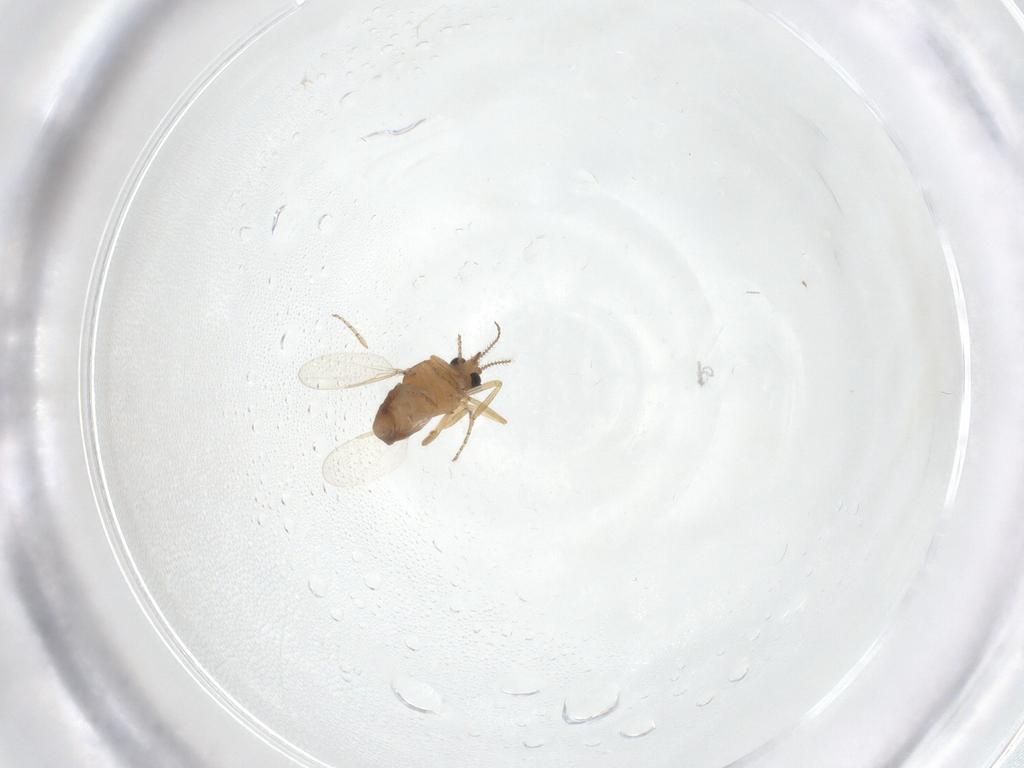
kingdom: Animalia
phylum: Arthropoda
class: Insecta
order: Diptera
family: Ceratopogonidae
